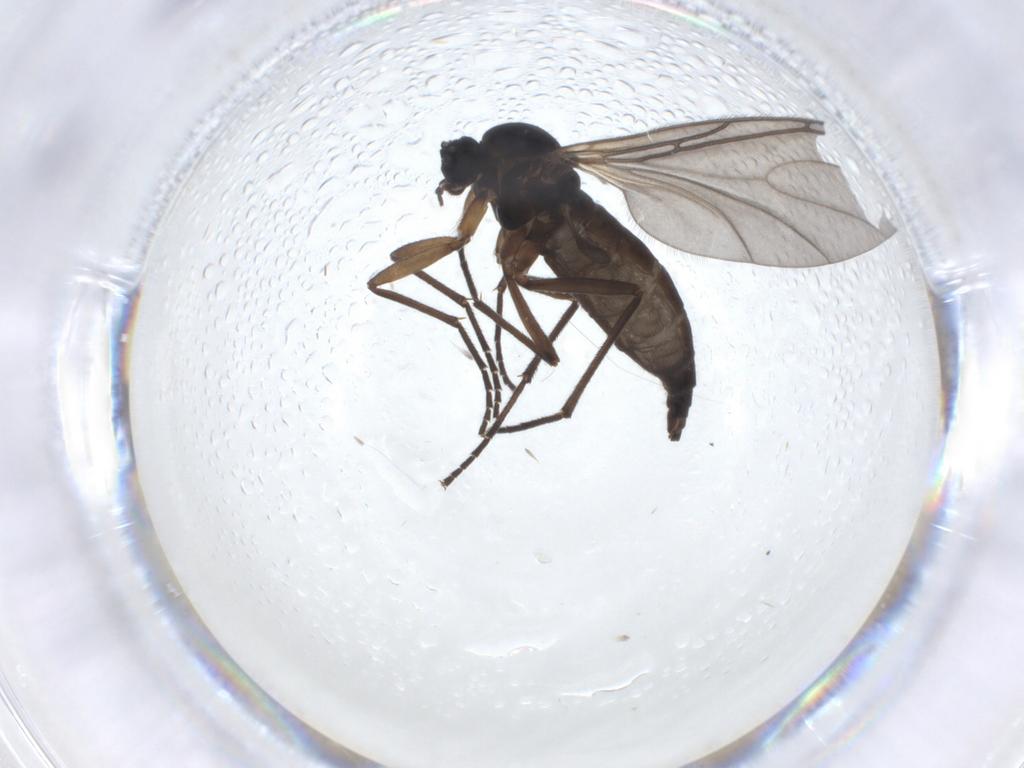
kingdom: Animalia
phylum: Arthropoda
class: Insecta
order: Diptera
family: Sciaridae
